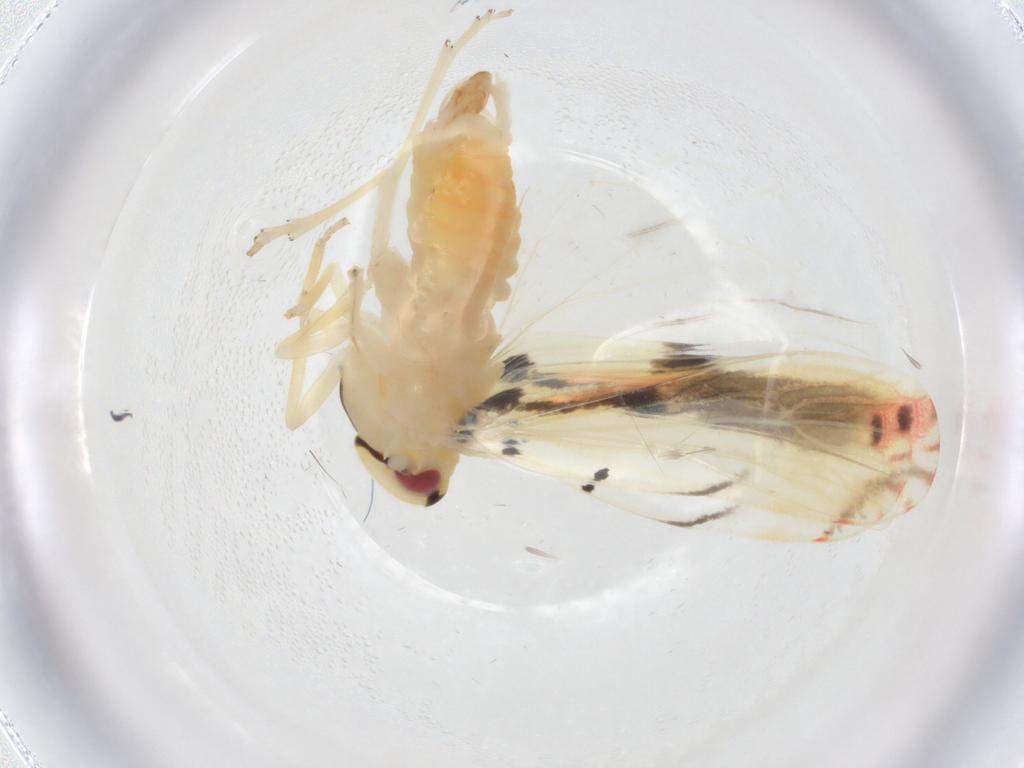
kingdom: Animalia
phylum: Arthropoda
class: Insecta
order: Hemiptera
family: Derbidae
